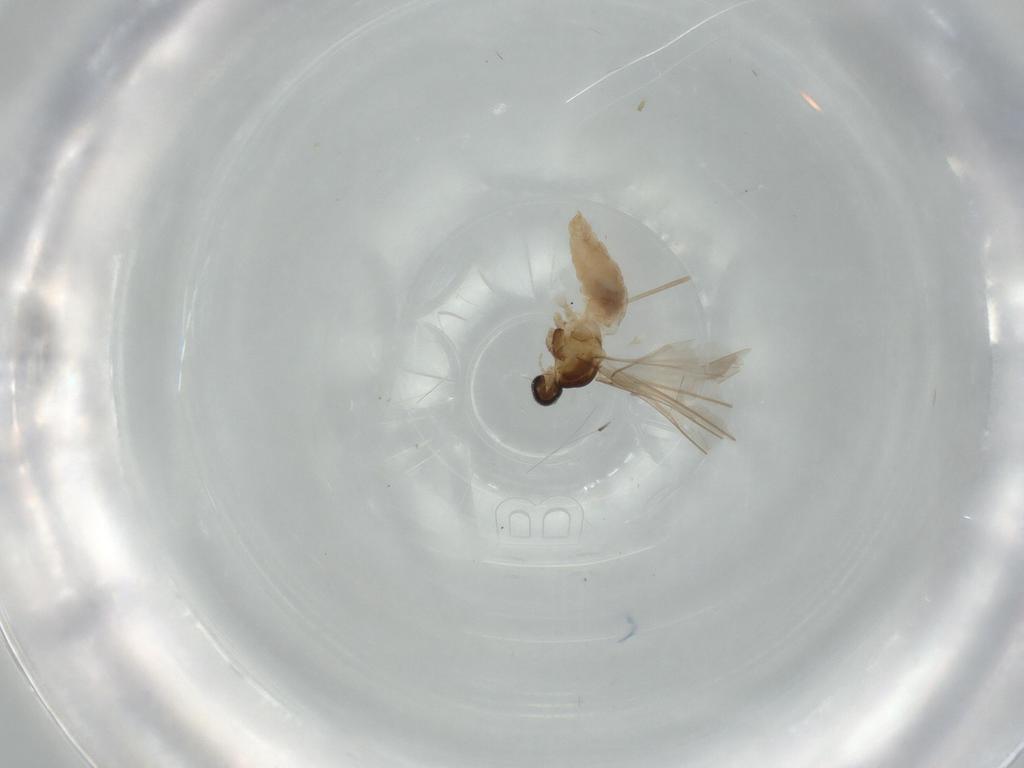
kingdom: Animalia
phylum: Arthropoda
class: Insecta
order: Diptera
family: Cecidomyiidae
